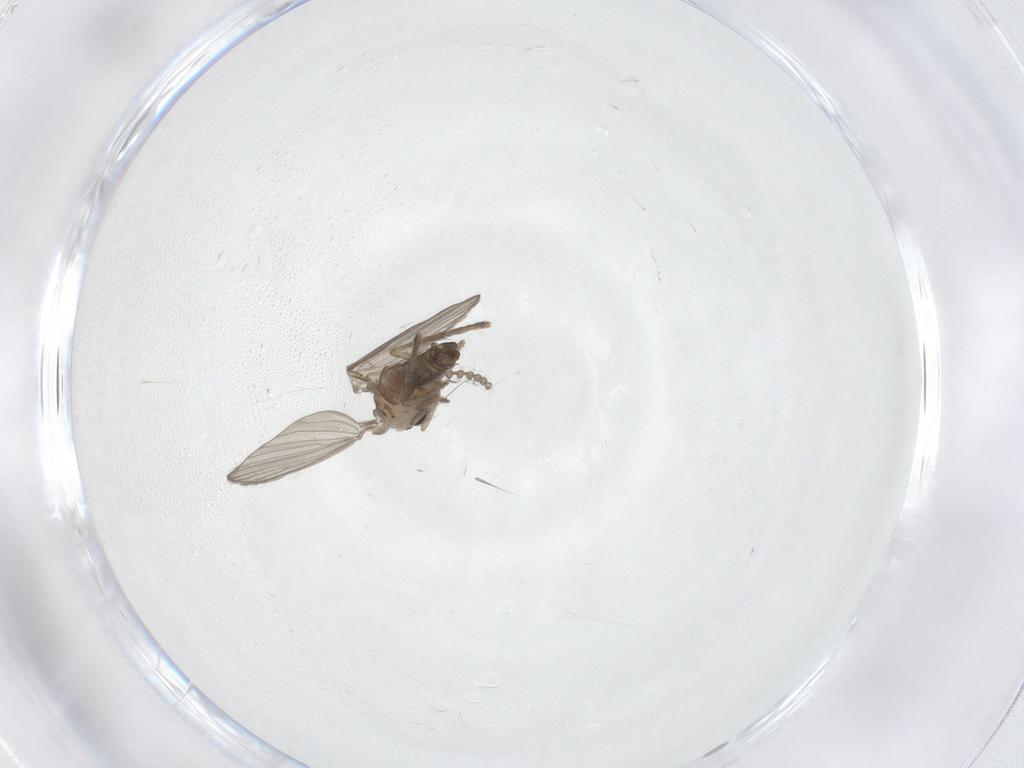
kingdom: Animalia
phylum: Arthropoda
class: Insecta
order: Diptera
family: Psychodidae
